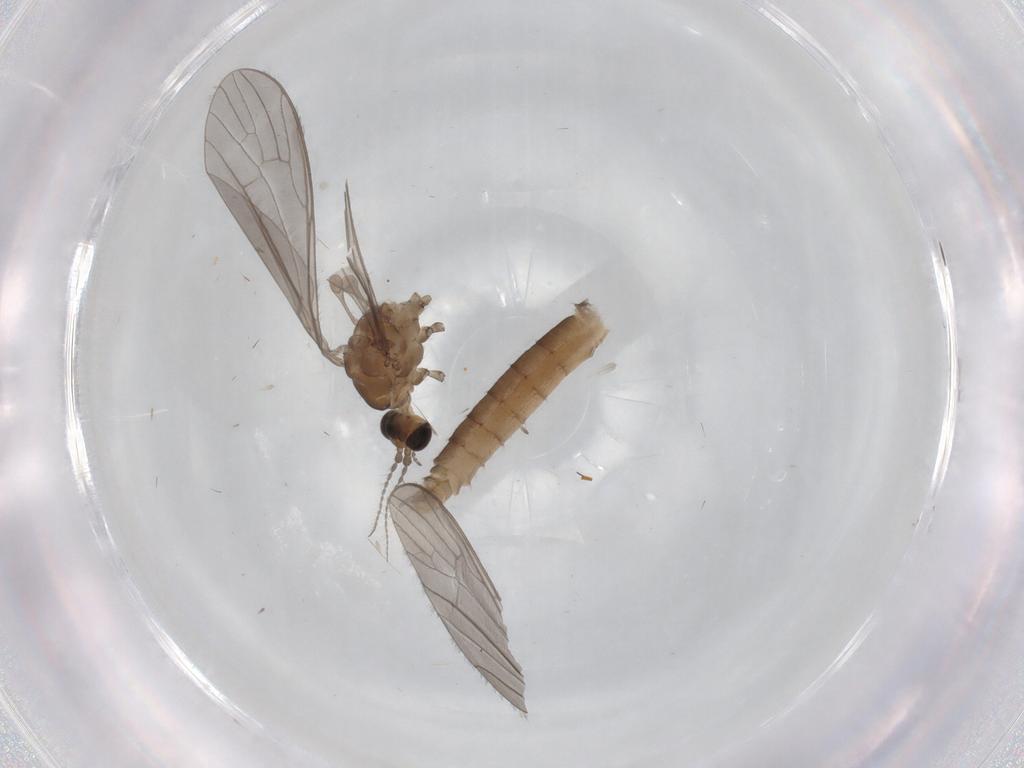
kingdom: Animalia
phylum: Arthropoda
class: Insecta
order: Diptera
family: Limoniidae
